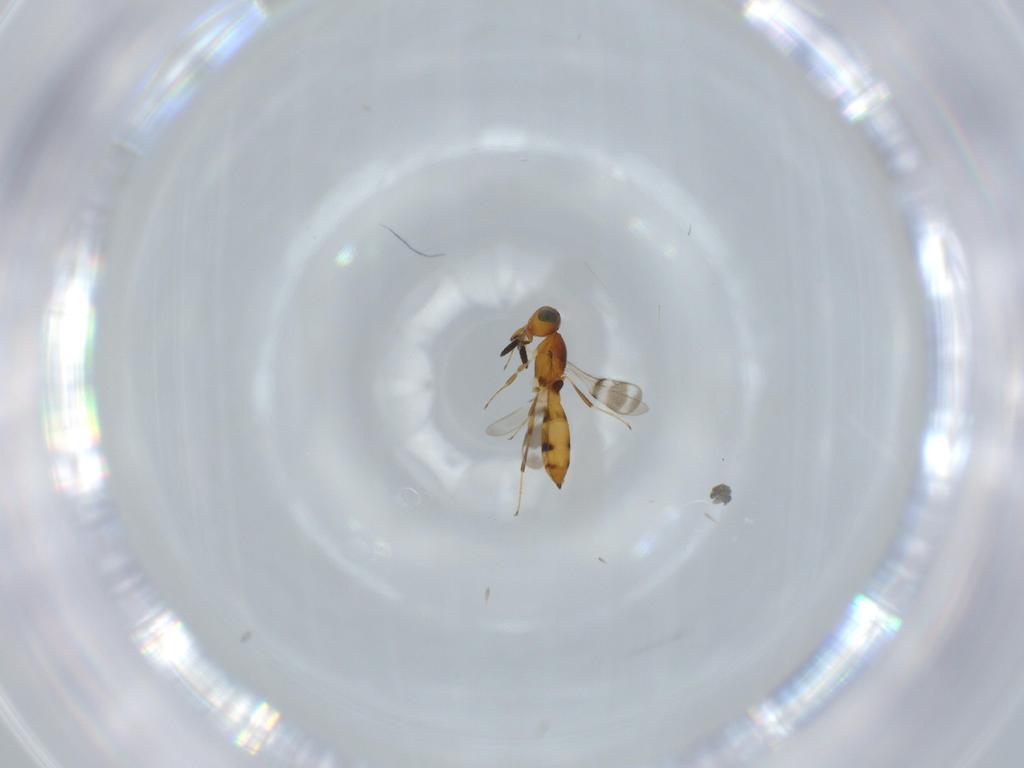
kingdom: Animalia
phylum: Arthropoda
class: Insecta
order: Hymenoptera
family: Scelionidae
